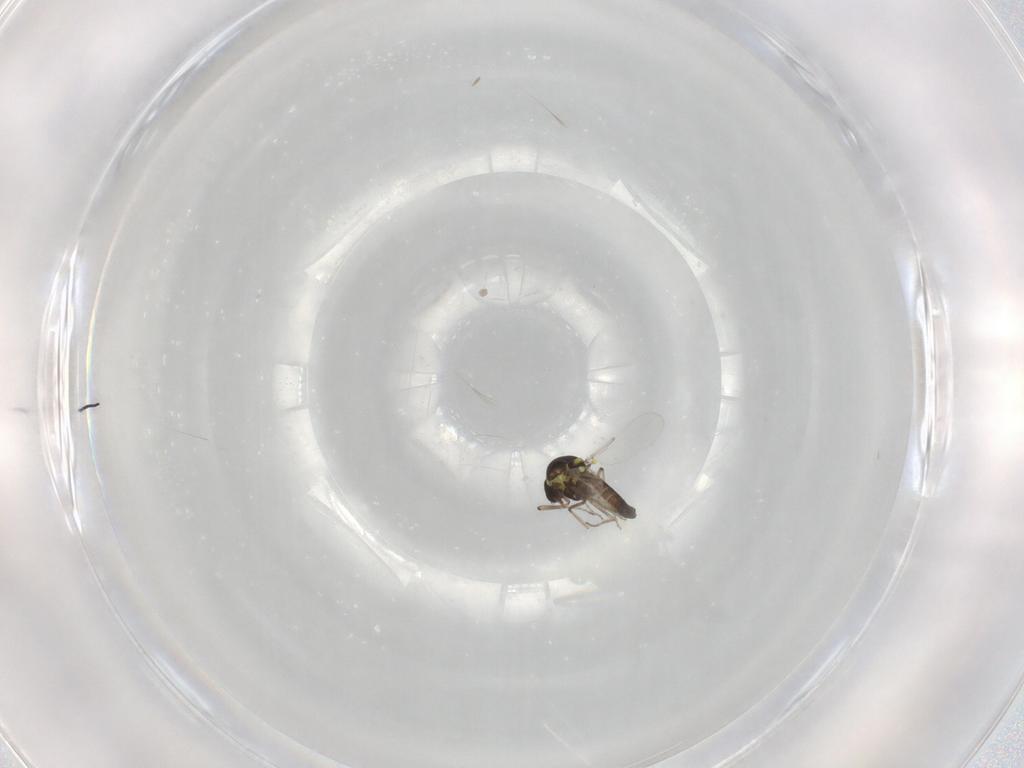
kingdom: Animalia
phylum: Arthropoda
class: Insecta
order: Diptera
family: Ceratopogonidae
